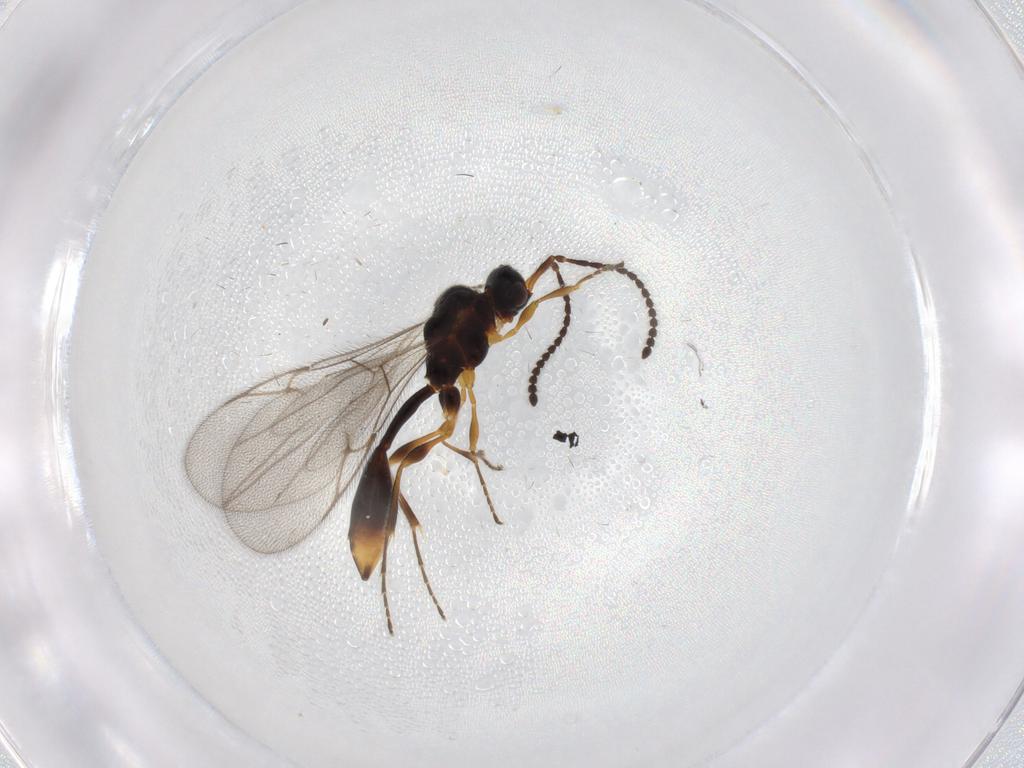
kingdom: Animalia
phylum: Arthropoda
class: Insecta
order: Hymenoptera
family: Diapriidae
